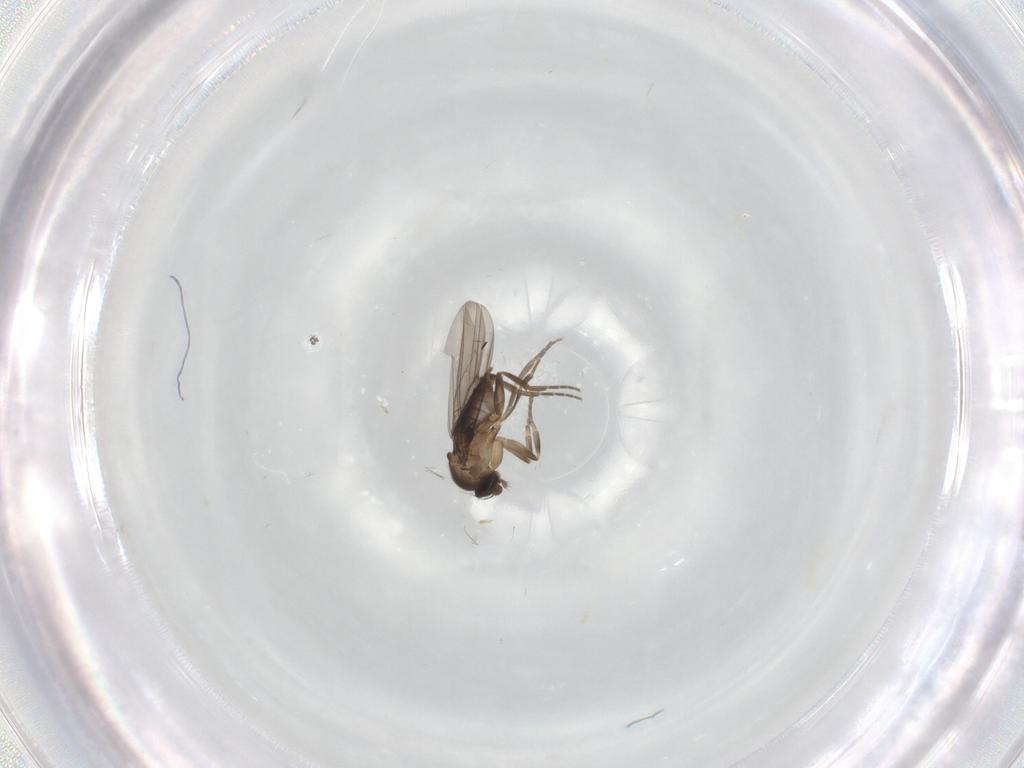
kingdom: Animalia
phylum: Arthropoda
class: Insecta
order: Diptera
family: Phoridae
